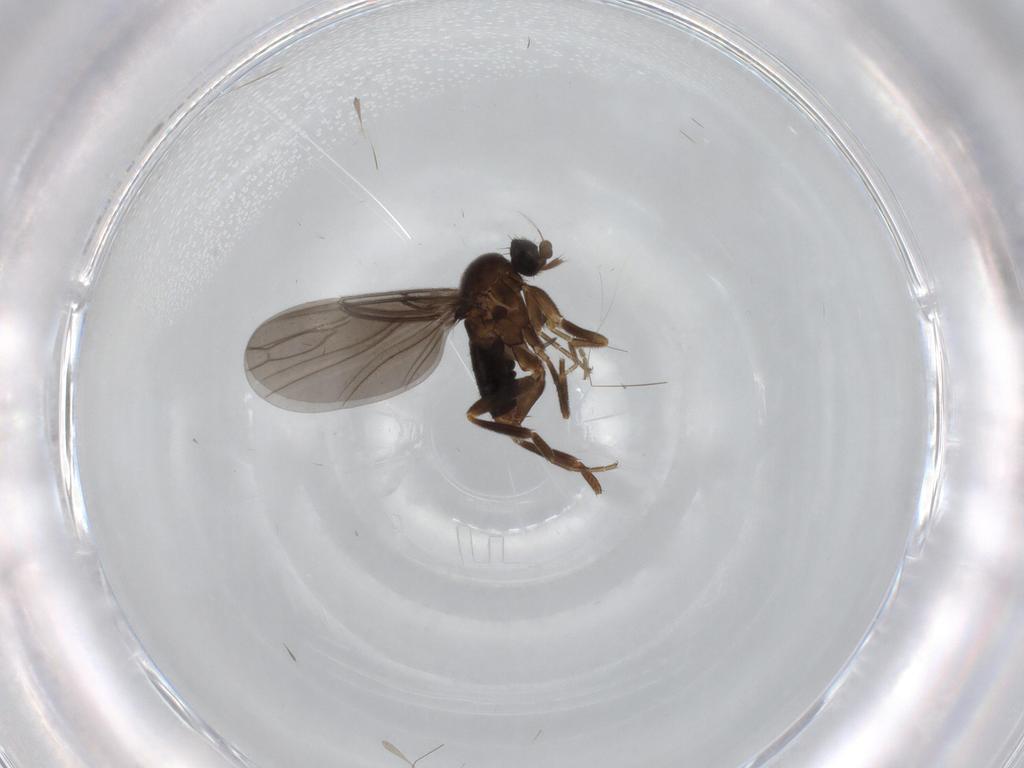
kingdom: Animalia
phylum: Arthropoda
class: Insecta
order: Diptera
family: Phoridae
